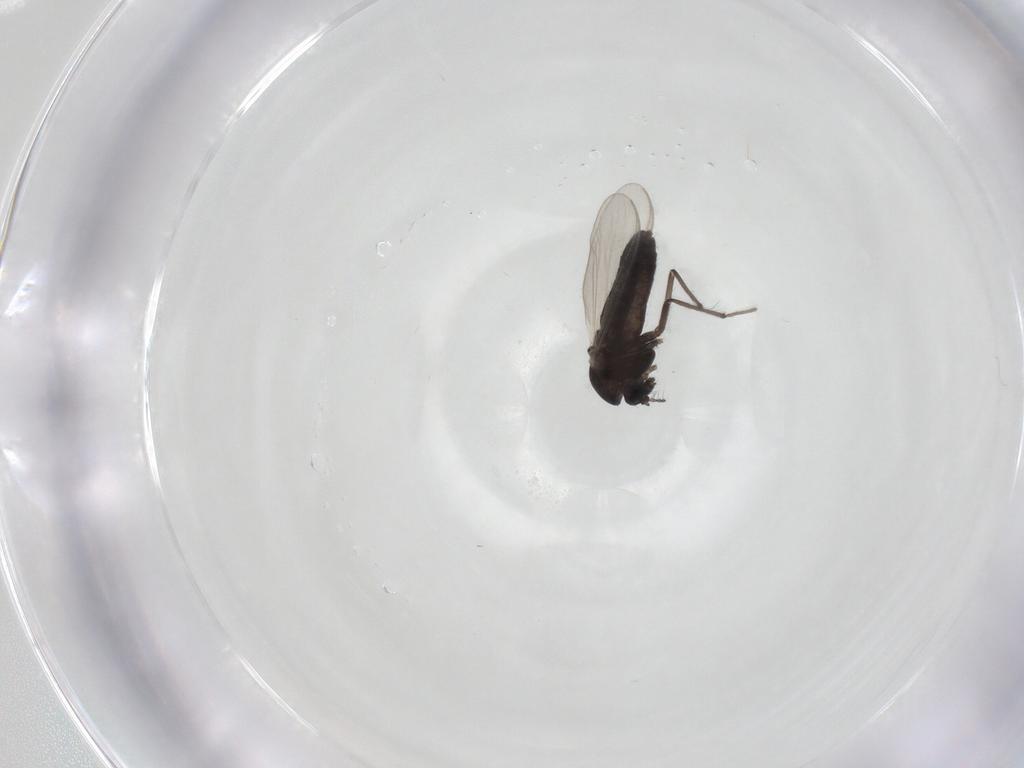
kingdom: Animalia
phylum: Arthropoda
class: Insecta
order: Diptera
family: Chironomidae
